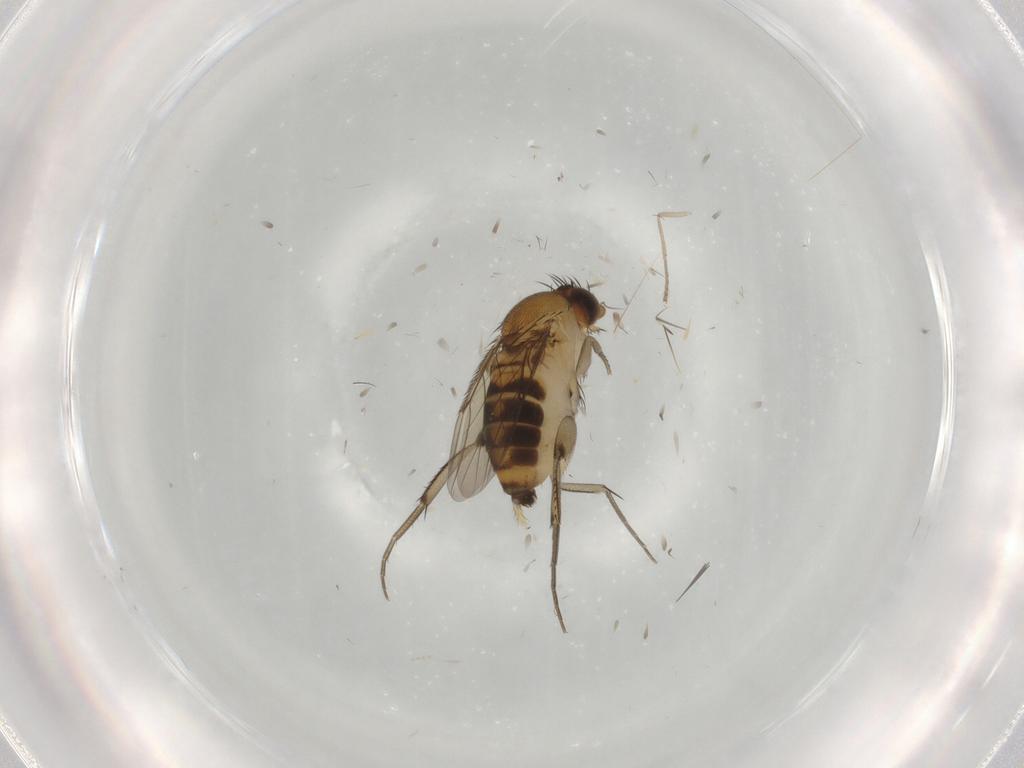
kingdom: Animalia
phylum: Arthropoda
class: Insecta
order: Diptera
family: Phoridae
